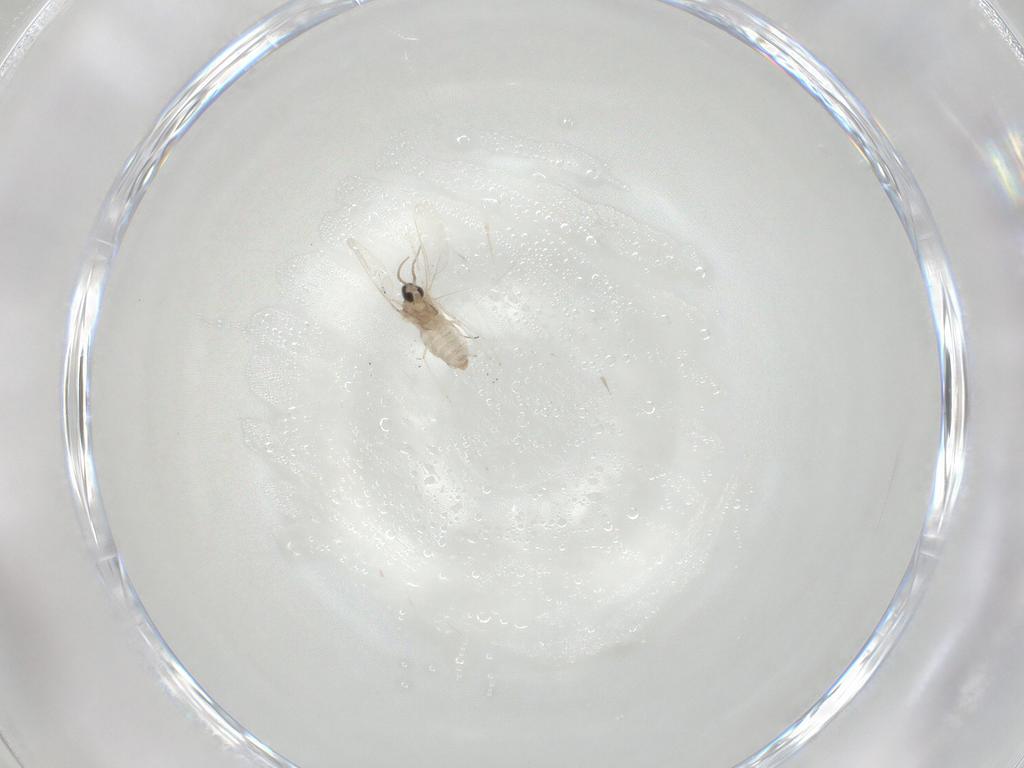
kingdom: Animalia
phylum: Arthropoda
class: Insecta
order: Diptera
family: Cecidomyiidae
